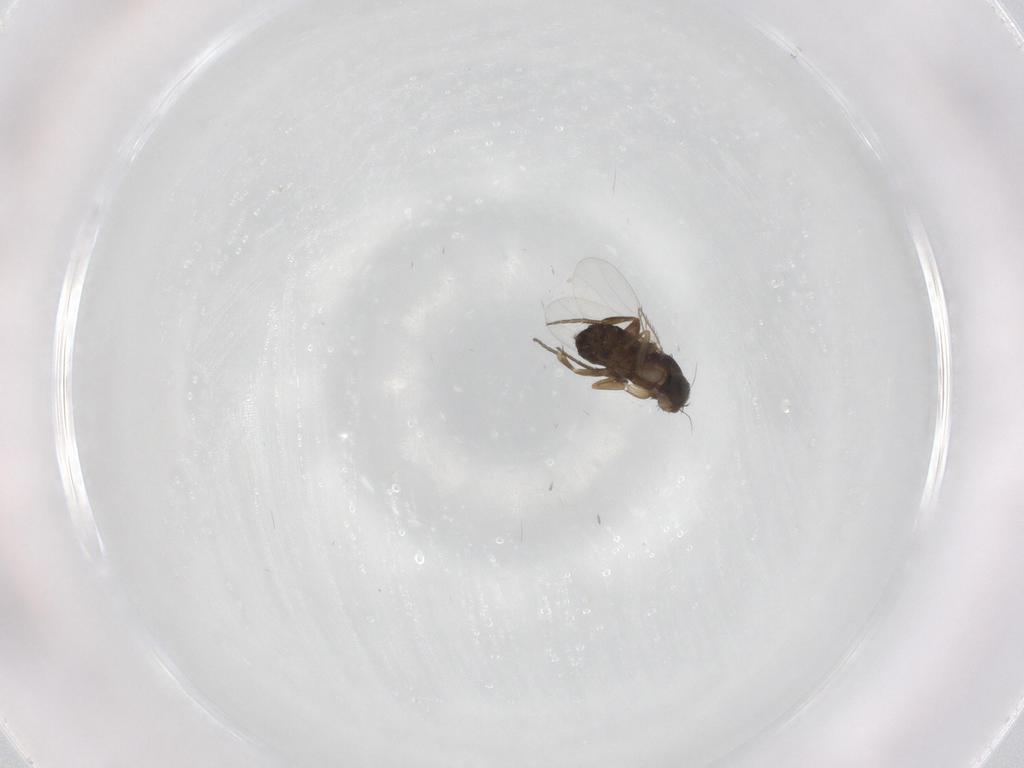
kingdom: Animalia
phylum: Arthropoda
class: Insecta
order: Diptera
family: Phoridae
